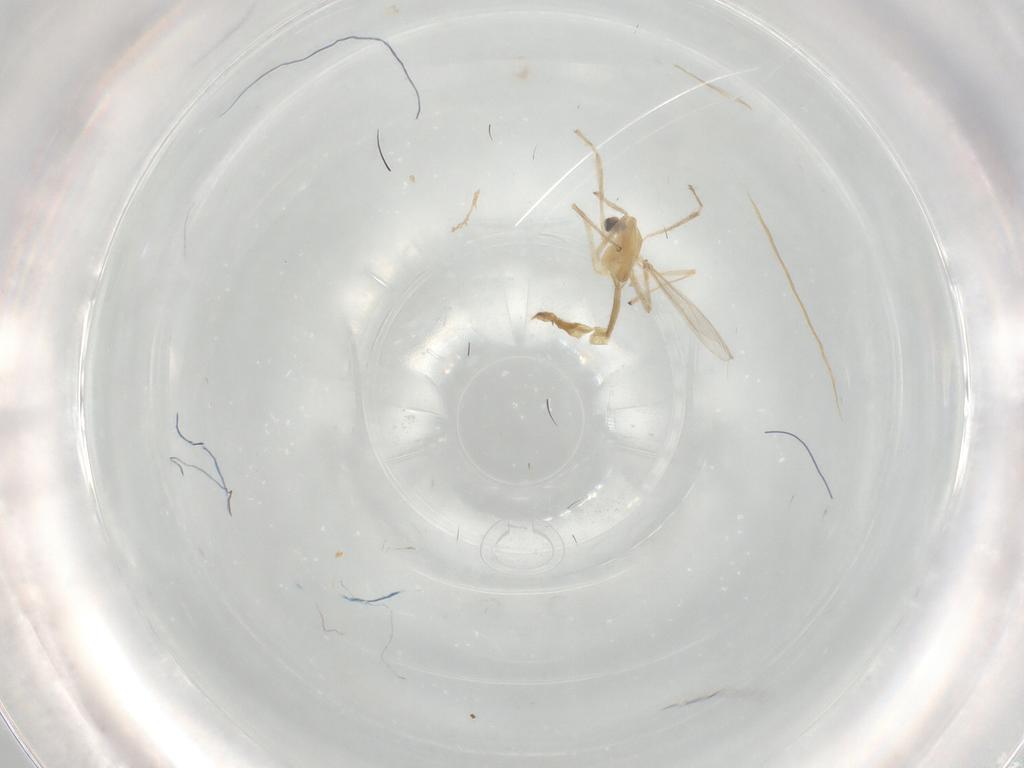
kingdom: Animalia
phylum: Arthropoda
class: Insecta
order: Diptera
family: Chironomidae
